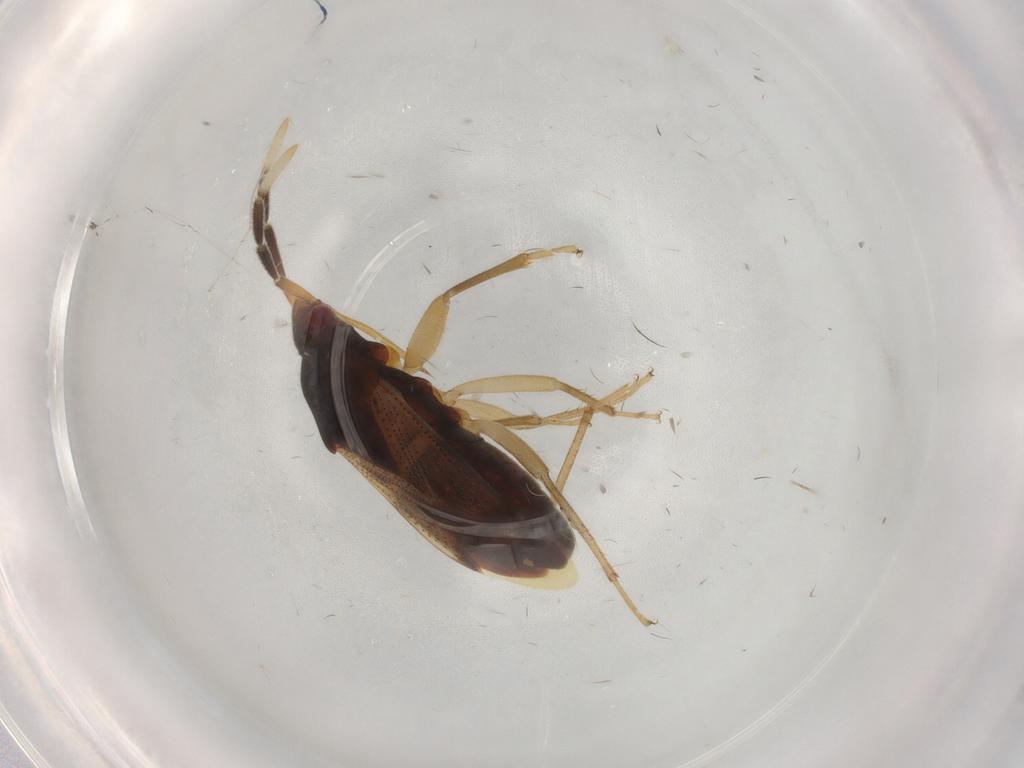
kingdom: Animalia
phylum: Arthropoda
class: Insecta
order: Hemiptera
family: Rhyparochromidae
